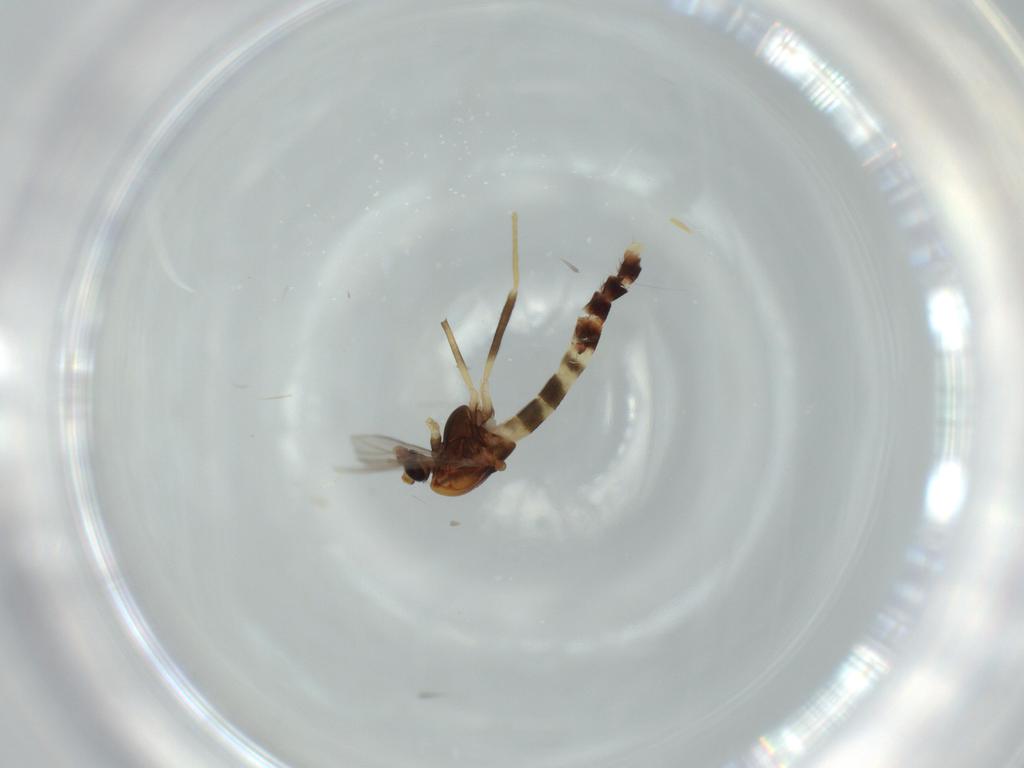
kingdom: Animalia
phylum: Arthropoda
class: Insecta
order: Diptera
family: Phoridae
